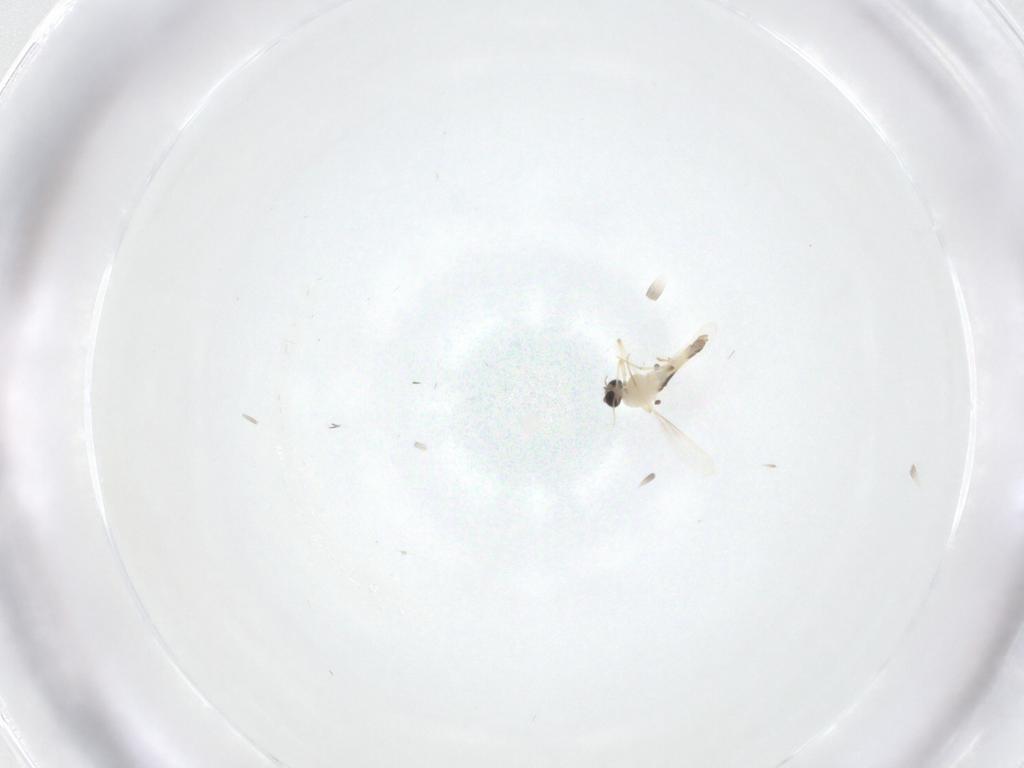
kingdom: Animalia
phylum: Arthropoda
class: Insecta
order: Diptera
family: Chironomidae
